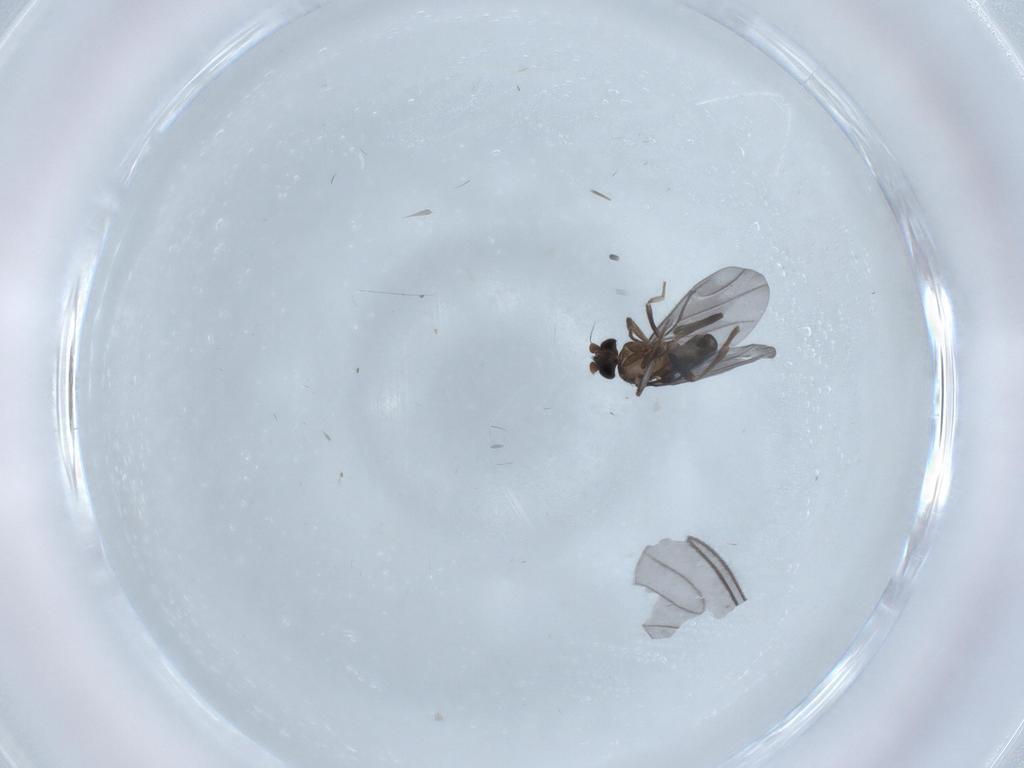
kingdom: Animalia
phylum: Arthropoda
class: Insecta
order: Diptera
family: Phoridae
